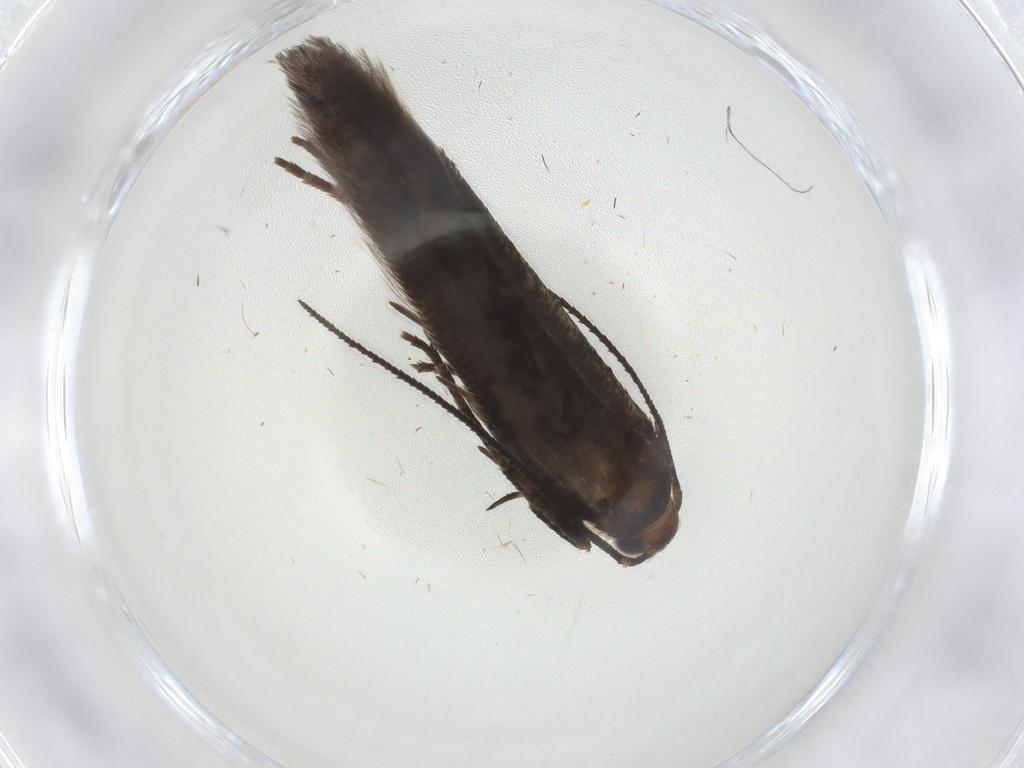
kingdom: Animalia
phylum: Arthropoda
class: Insecta
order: Lepidoptera
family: Gelechiidae
